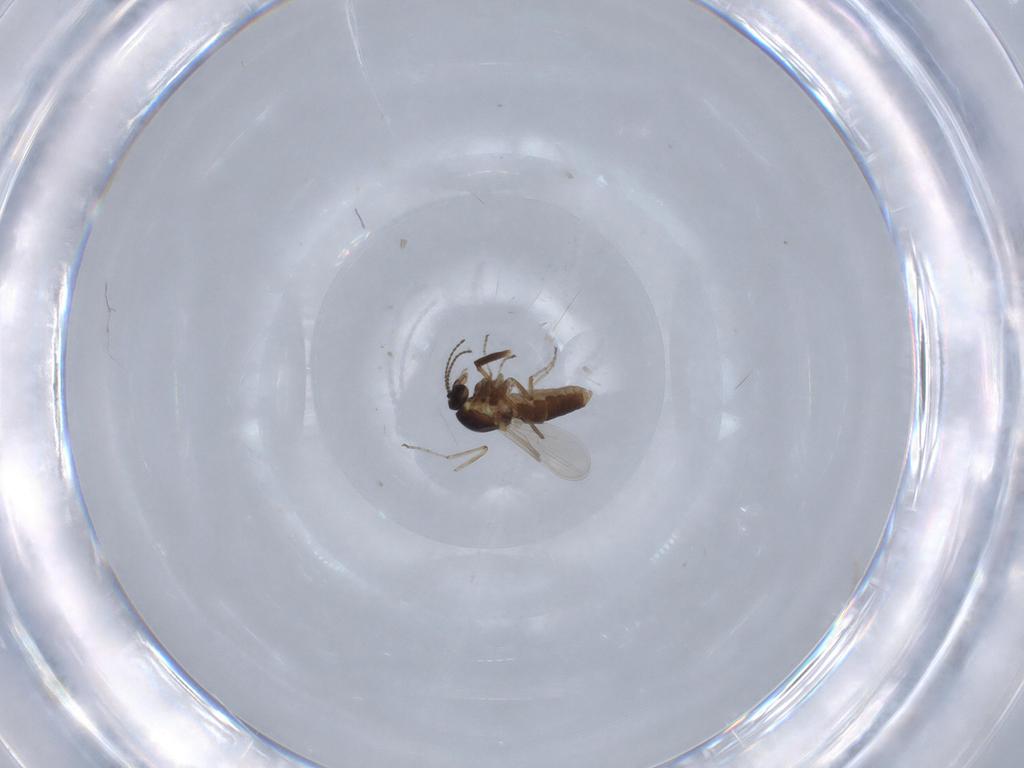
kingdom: Animalia
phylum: Arthropoda
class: Insecta
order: Diptera
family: Ceratopogonidae
